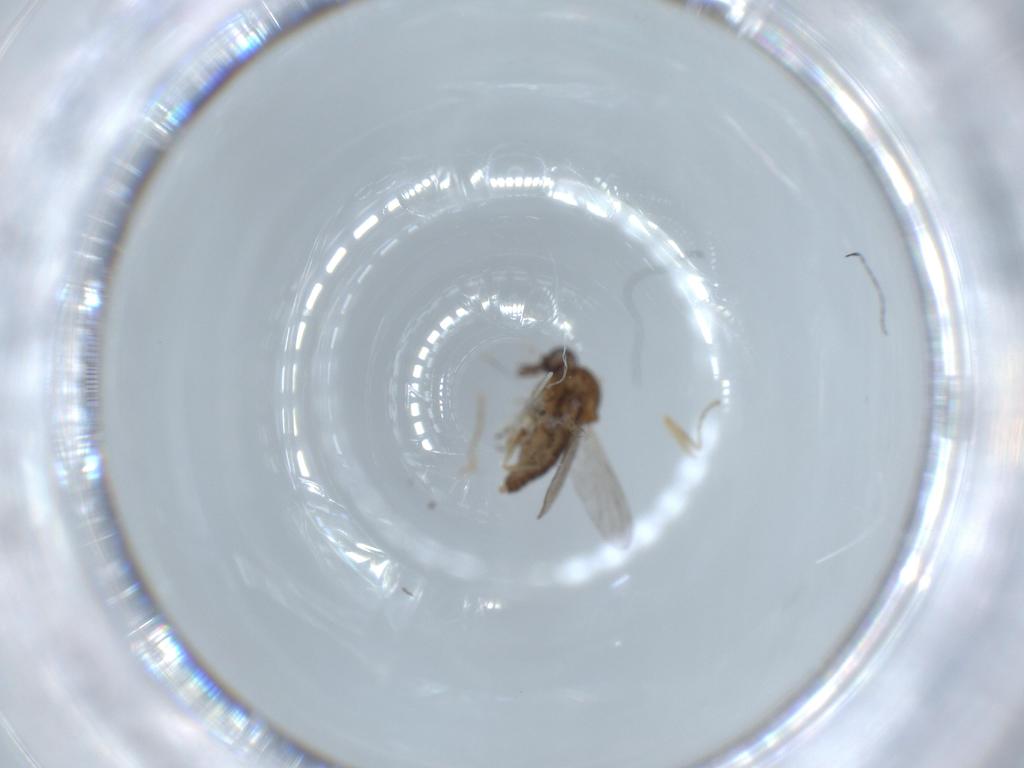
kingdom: Animalia
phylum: Arthropoda
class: Insecta
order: Diptera
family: Ceratopogonidae
